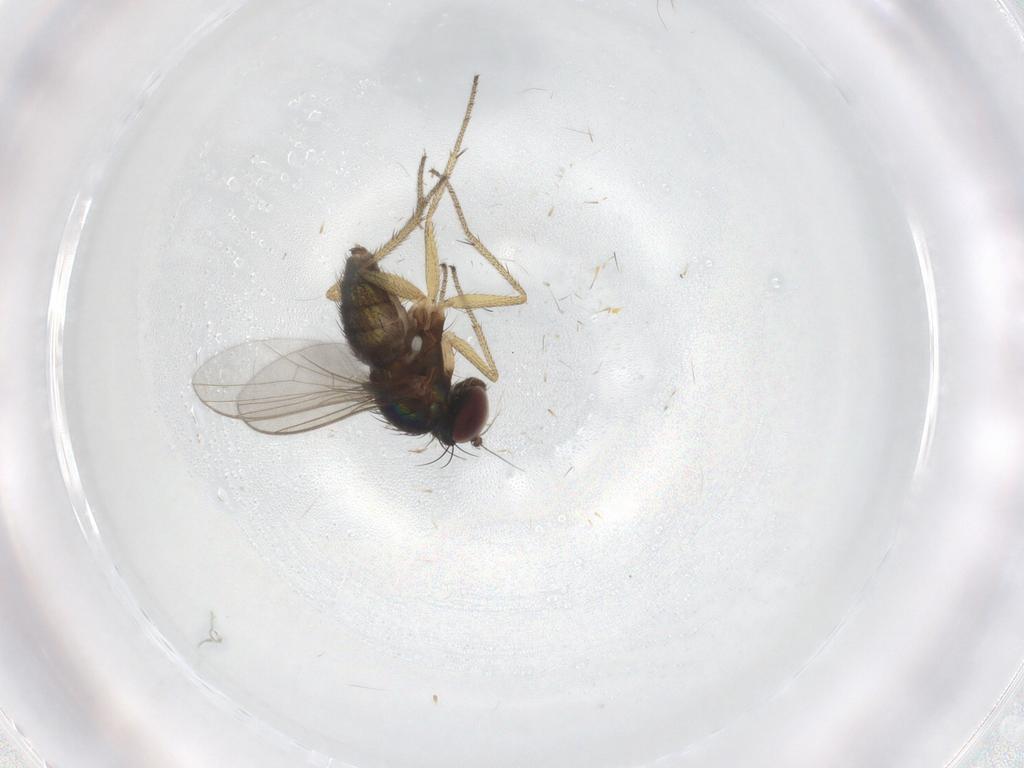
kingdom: Animalia
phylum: Arthropoda
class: Insecta
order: Diptera
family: Dolichopodidae
